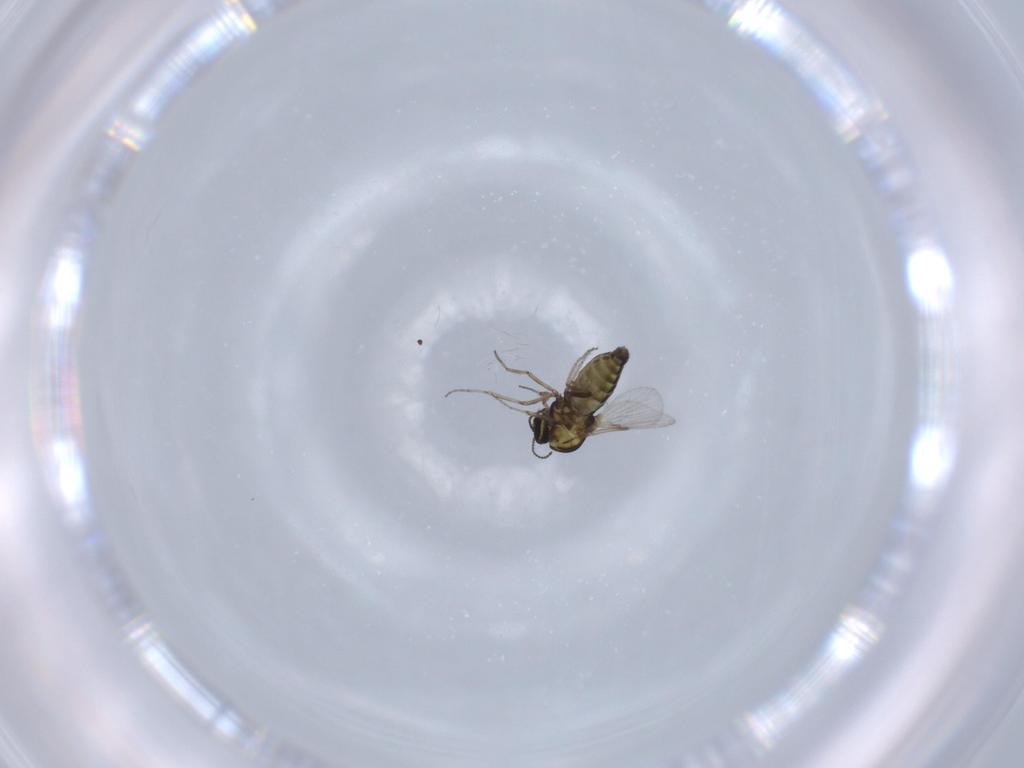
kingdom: Animalia
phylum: Arthropoda
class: Insecta
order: Diptera
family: Ceratopogonidae
